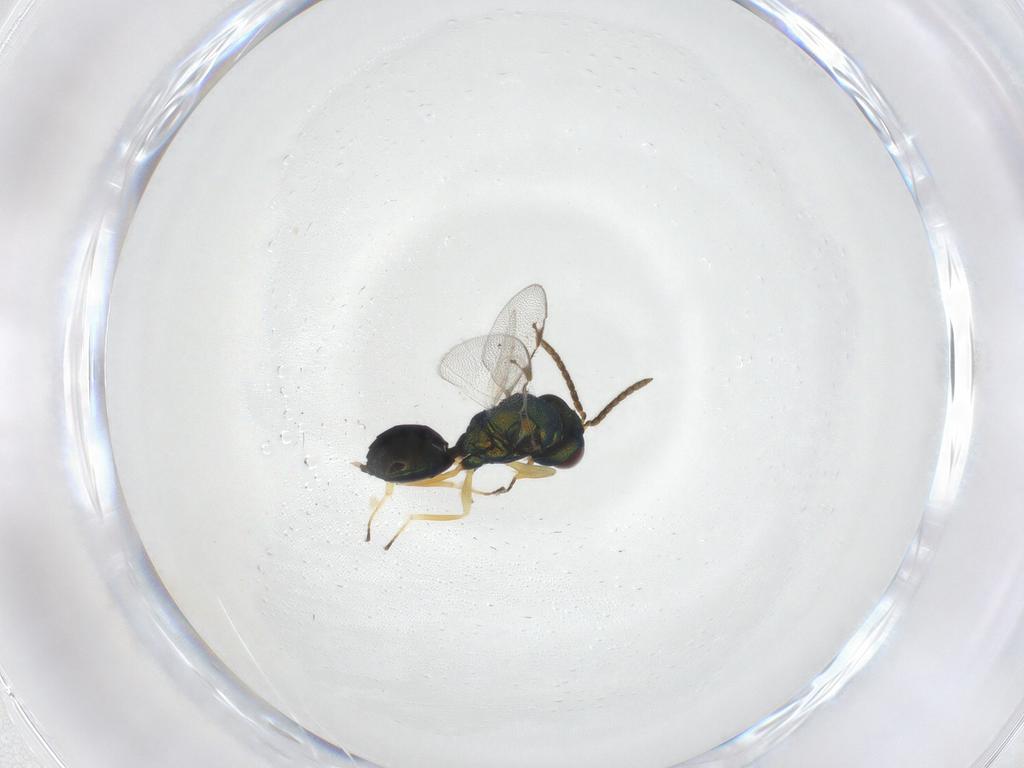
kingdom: Animalia
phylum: Arthropoda
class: Insecta
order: Hymenoptera
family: Pteromalidae
